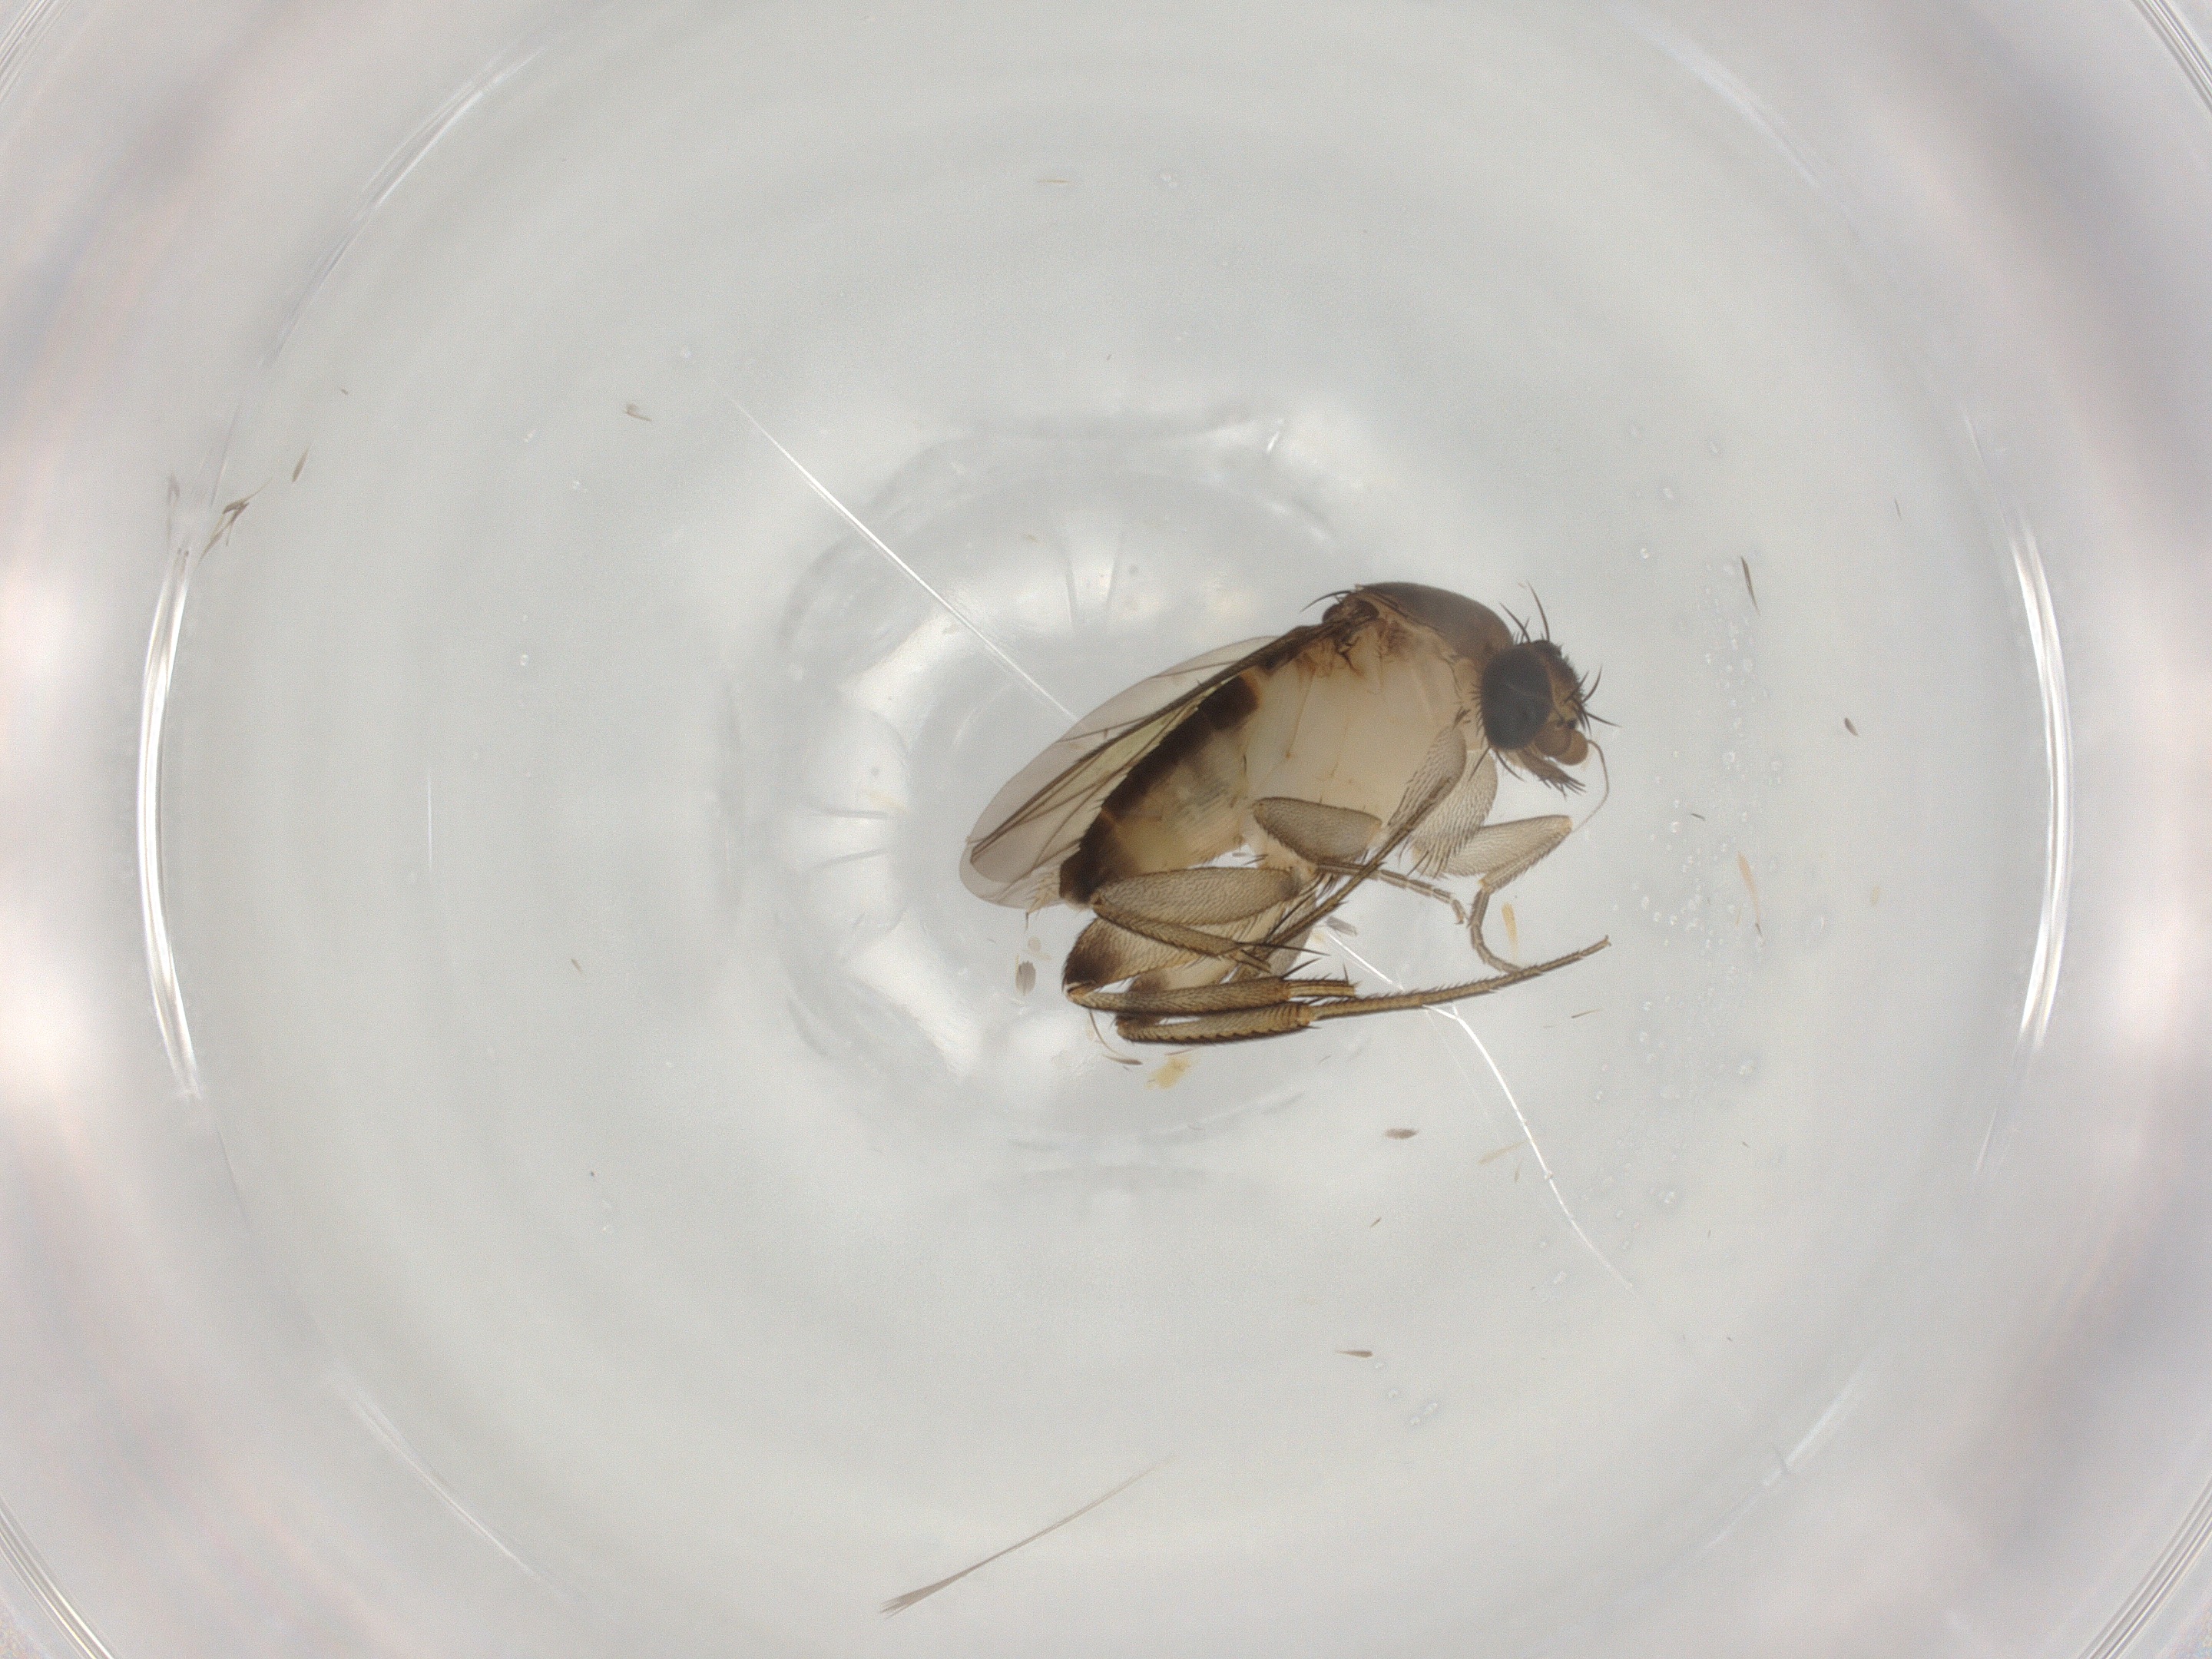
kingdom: Animalia
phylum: Arthropoda
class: Insecta
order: Diptera
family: Phoridae
